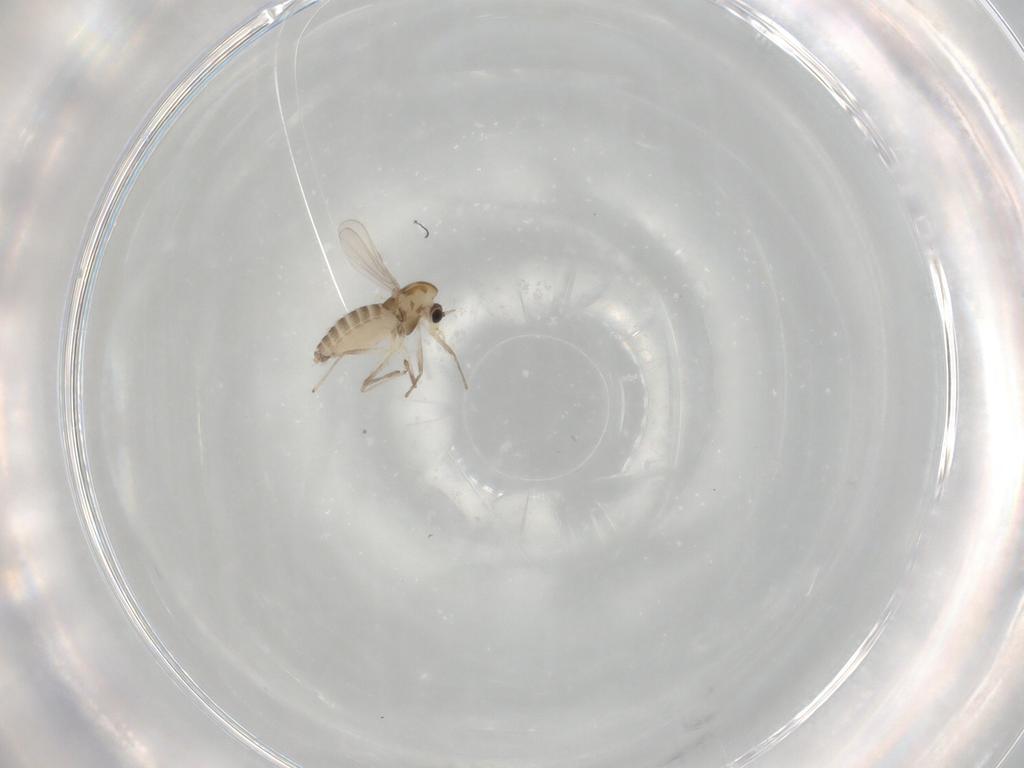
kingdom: Animalia
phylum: Arthropoda
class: Insecta
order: Diptera
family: Chironomidae
